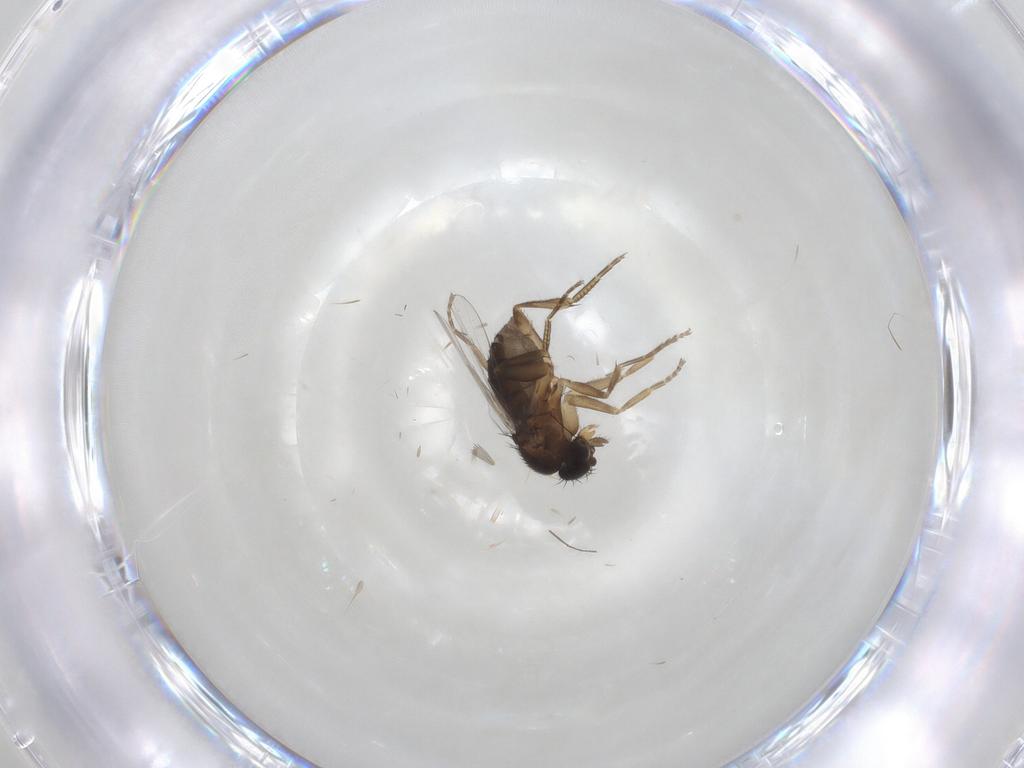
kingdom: Animalia
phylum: Arthropoda
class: Insecta
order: Diptera
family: Phoridae
